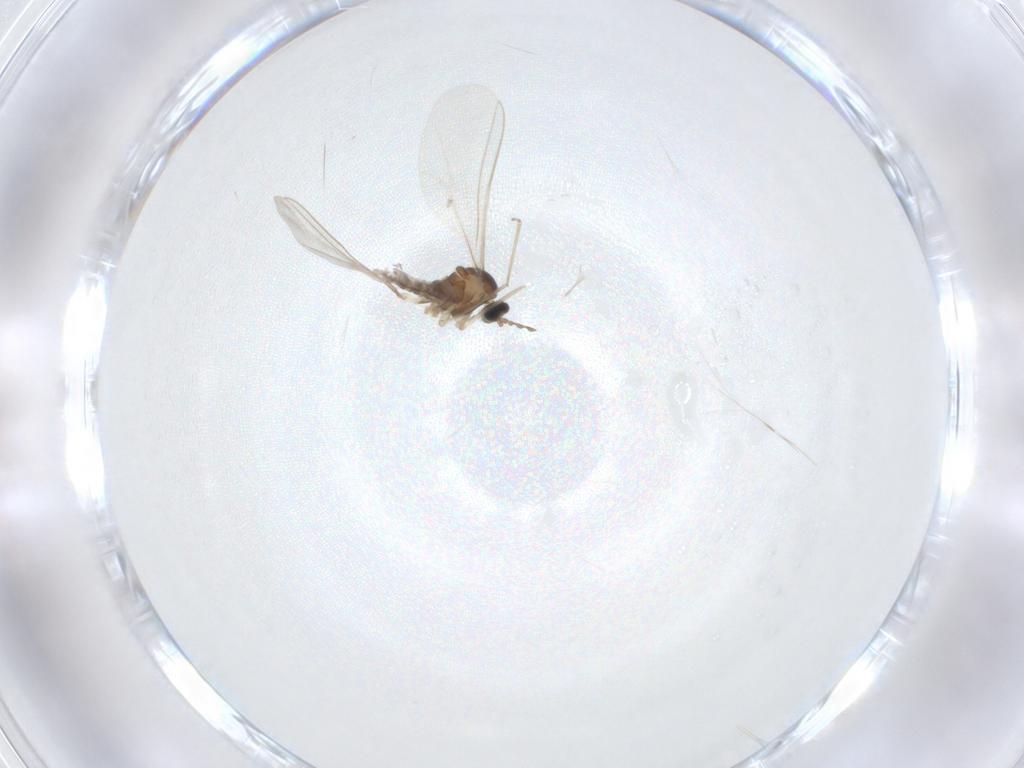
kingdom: Animalia
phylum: Arthropoda
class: Insecta
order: Diptera
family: Cecidomyiidae
